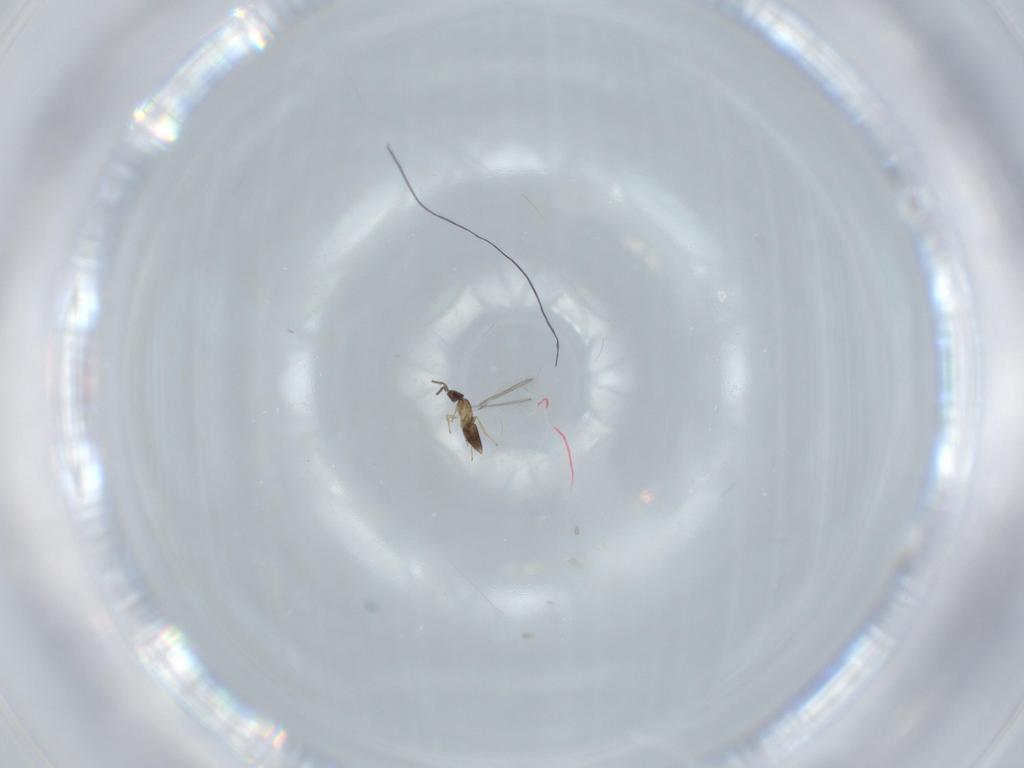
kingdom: Animalia
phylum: Arthropoda
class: Insecta
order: Hymenoptera
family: Mymaridae
